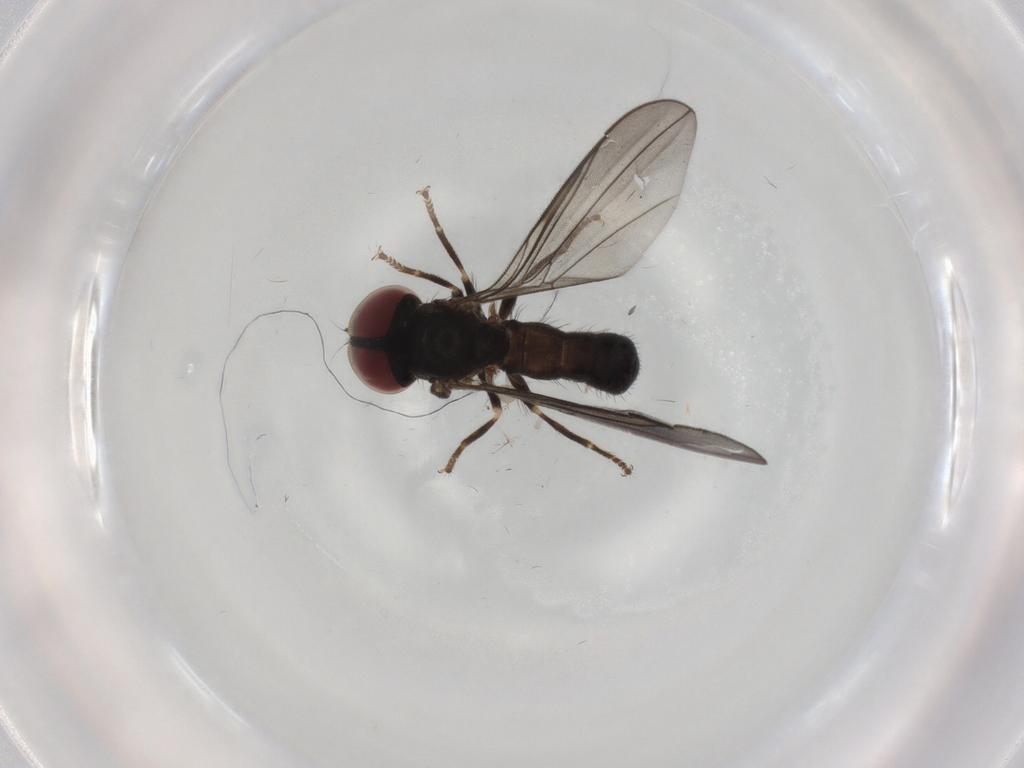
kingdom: Animalia
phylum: Arthropoda
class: Insecta
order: Diptera
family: Pipunculidae
